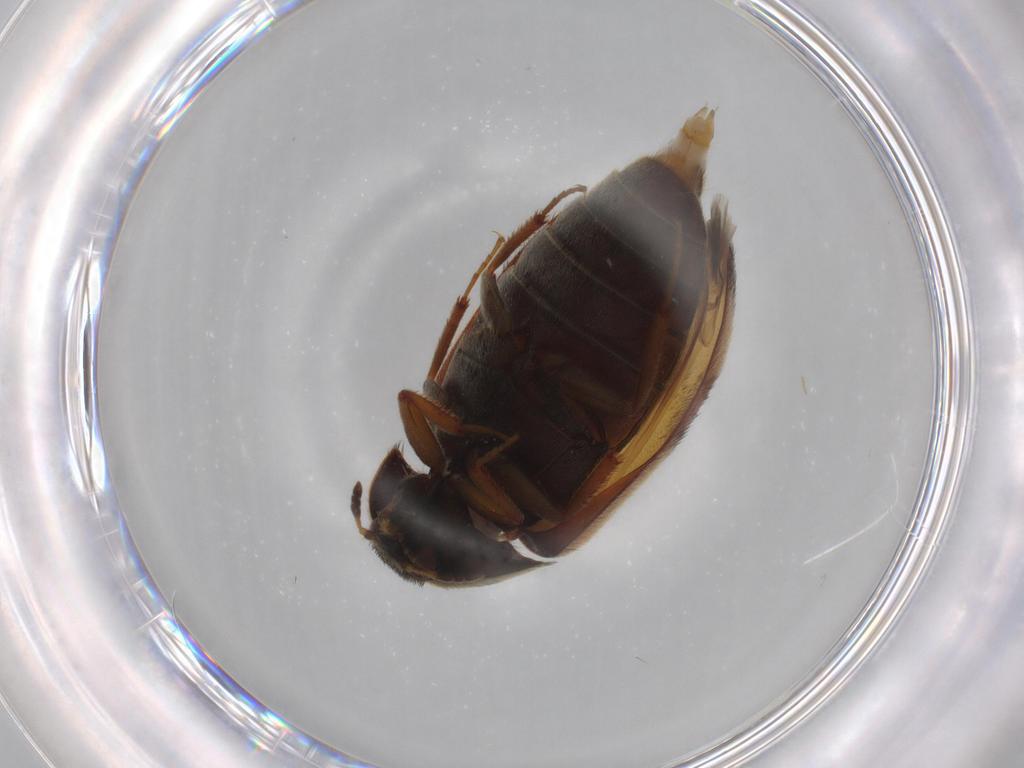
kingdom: Animalia
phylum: Arthropoda
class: Insecta
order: Coleoptera
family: Dermestidae
